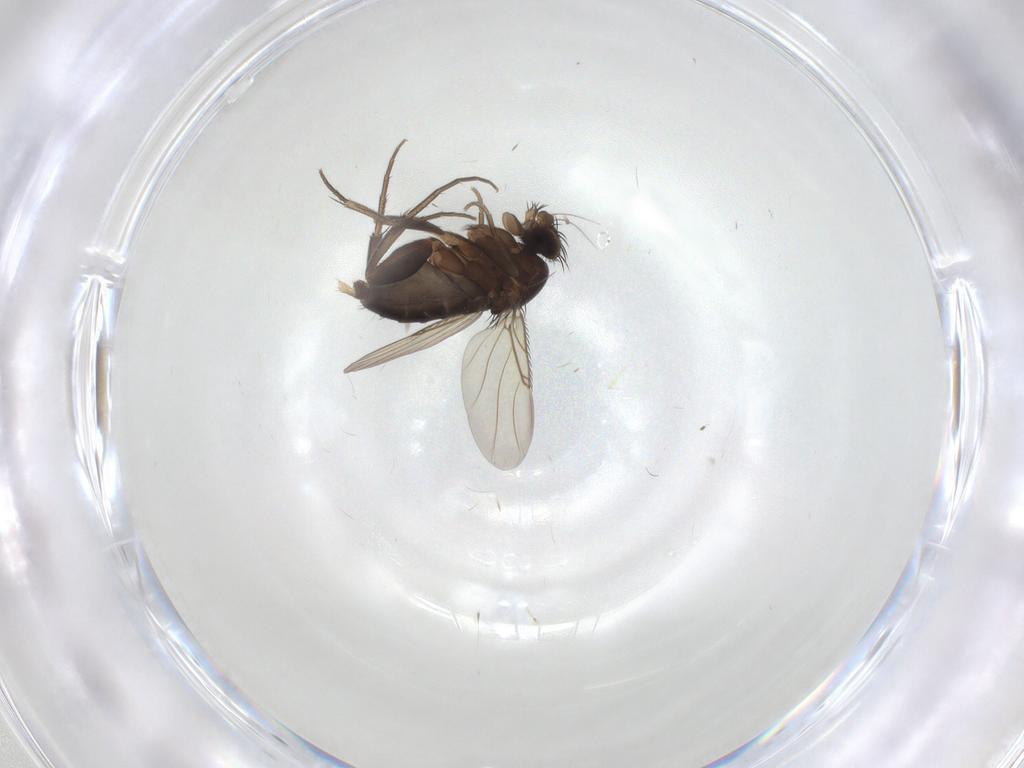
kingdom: Animalia
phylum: Arthropoda
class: Insecta
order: Diptera
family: Phoridae
